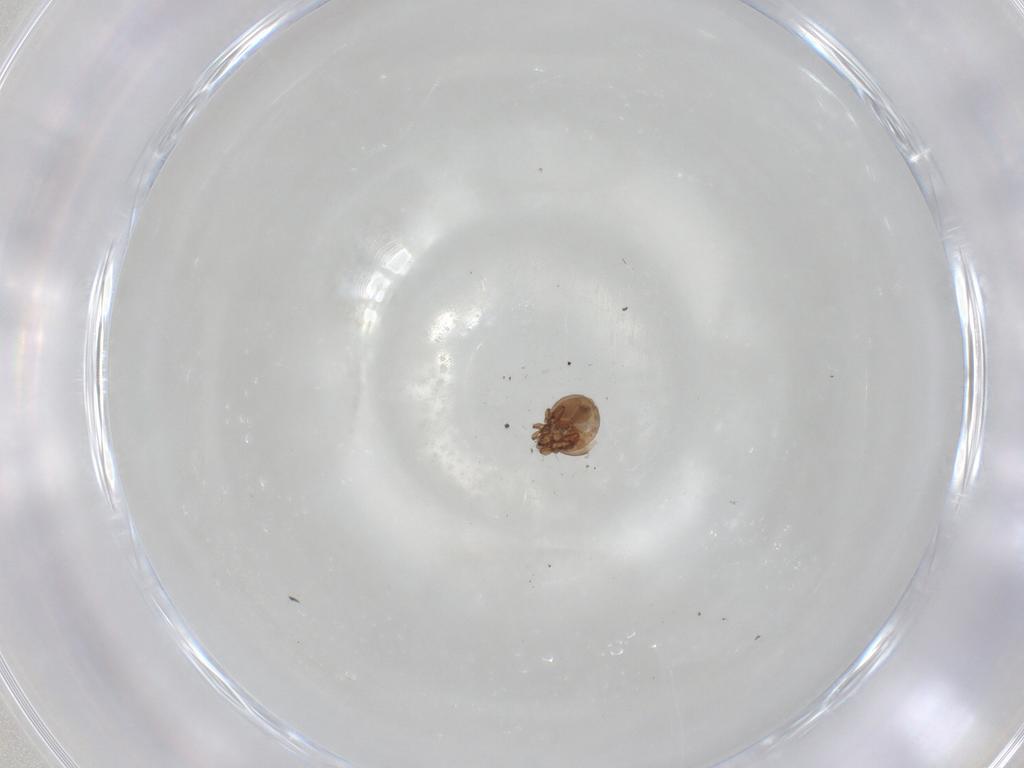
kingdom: Animalia
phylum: Arthropoda
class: Arachnida
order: Sarcoptiformes
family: Oribatulidae
